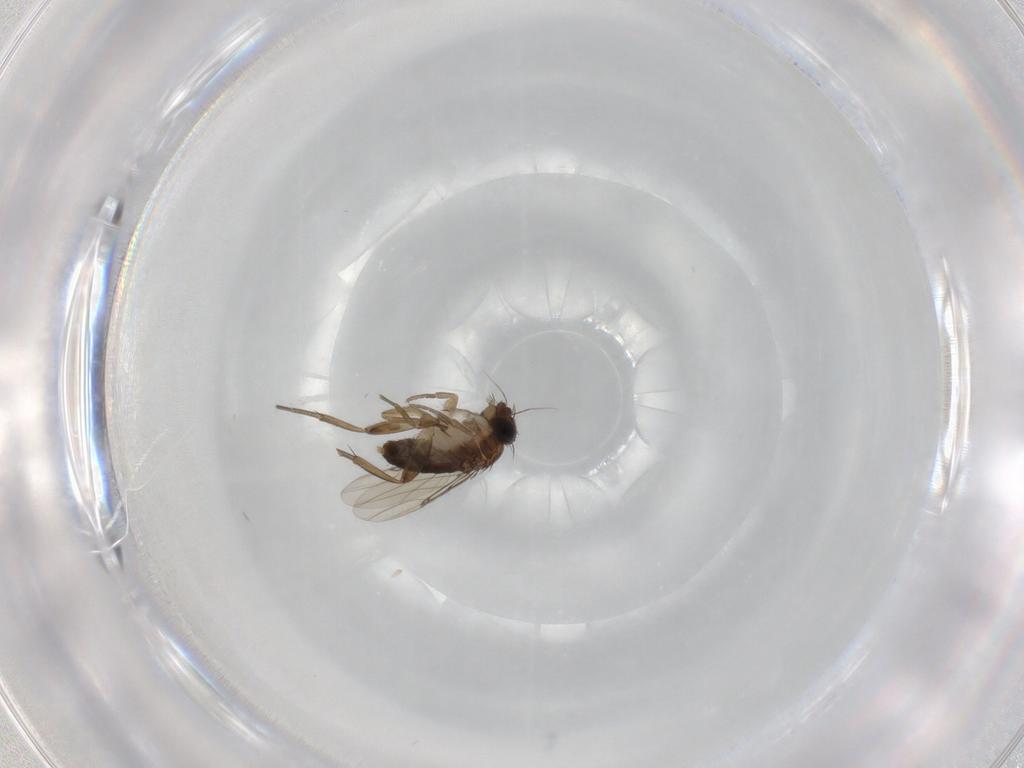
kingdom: Animalia
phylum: Arthropoda
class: Insecta
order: Diptera
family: Phoridae
